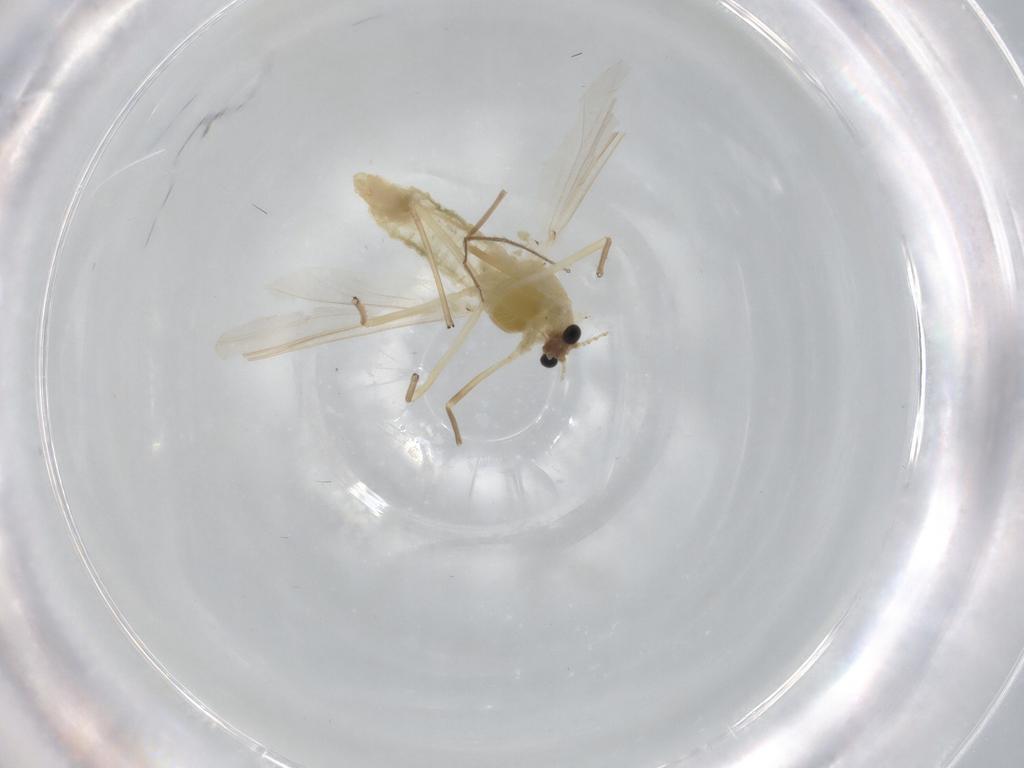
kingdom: Animalia
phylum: Arthropoda
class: Insecta
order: Diptera
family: Chironomidae
